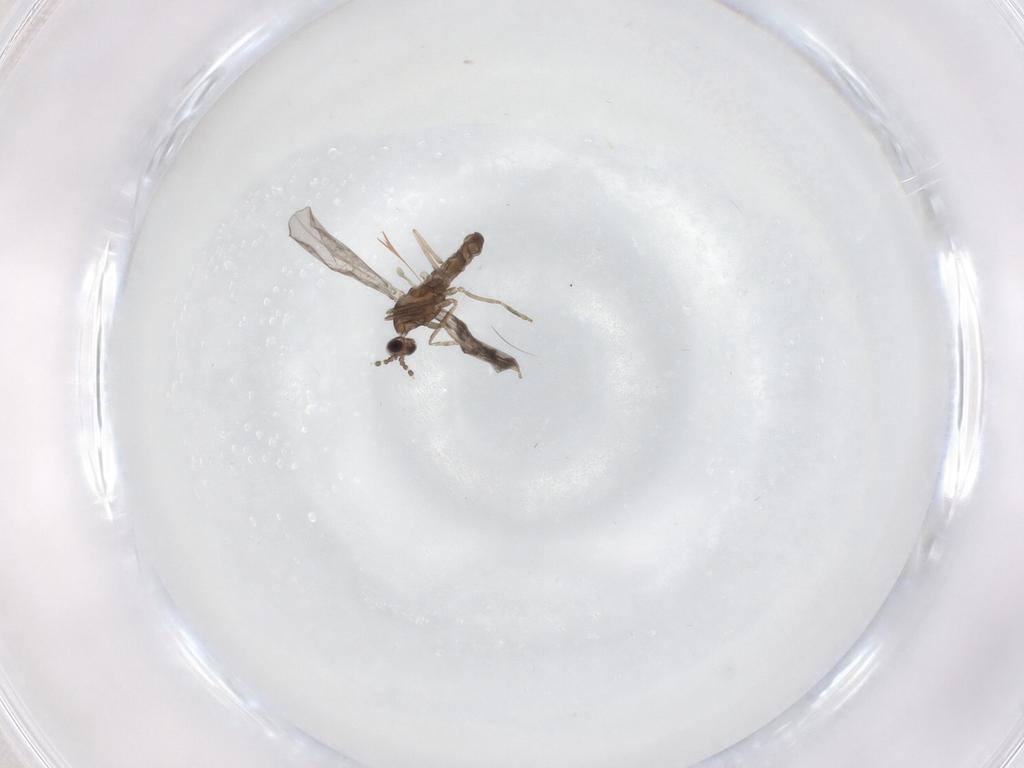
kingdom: Animalia
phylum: Arthropoda
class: Insecta
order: Diptera
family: Cecidomyiidae
